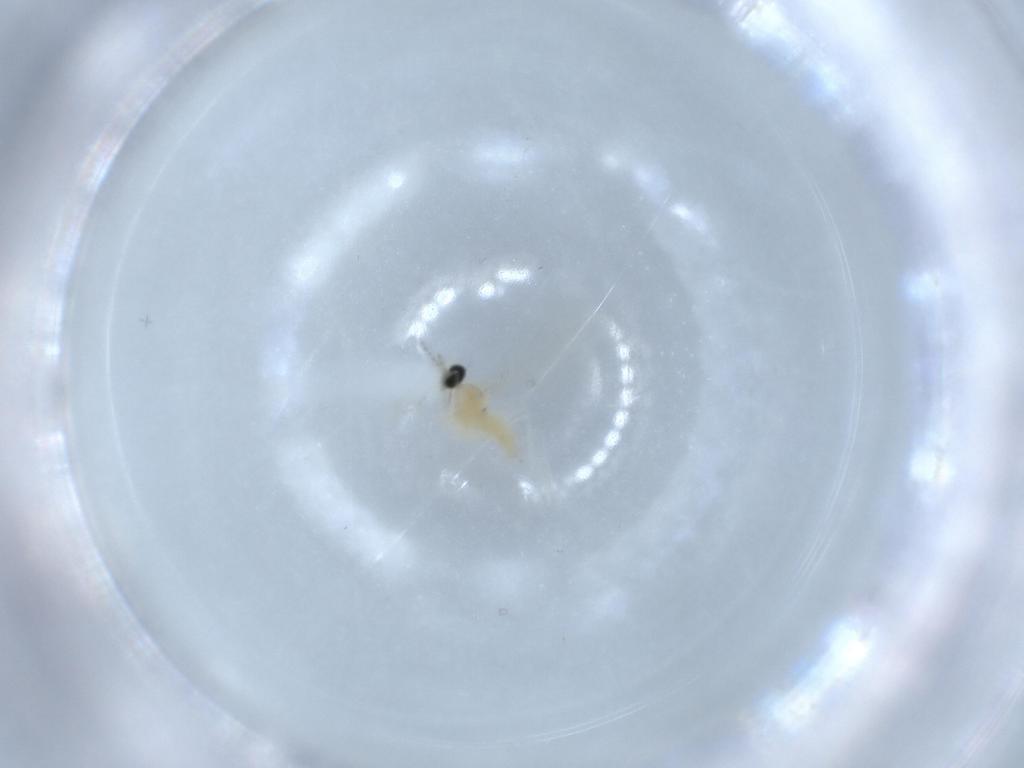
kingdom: Animalia
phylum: Arthropoda
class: Insecta
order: Diptera
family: Cecidomyiidae
